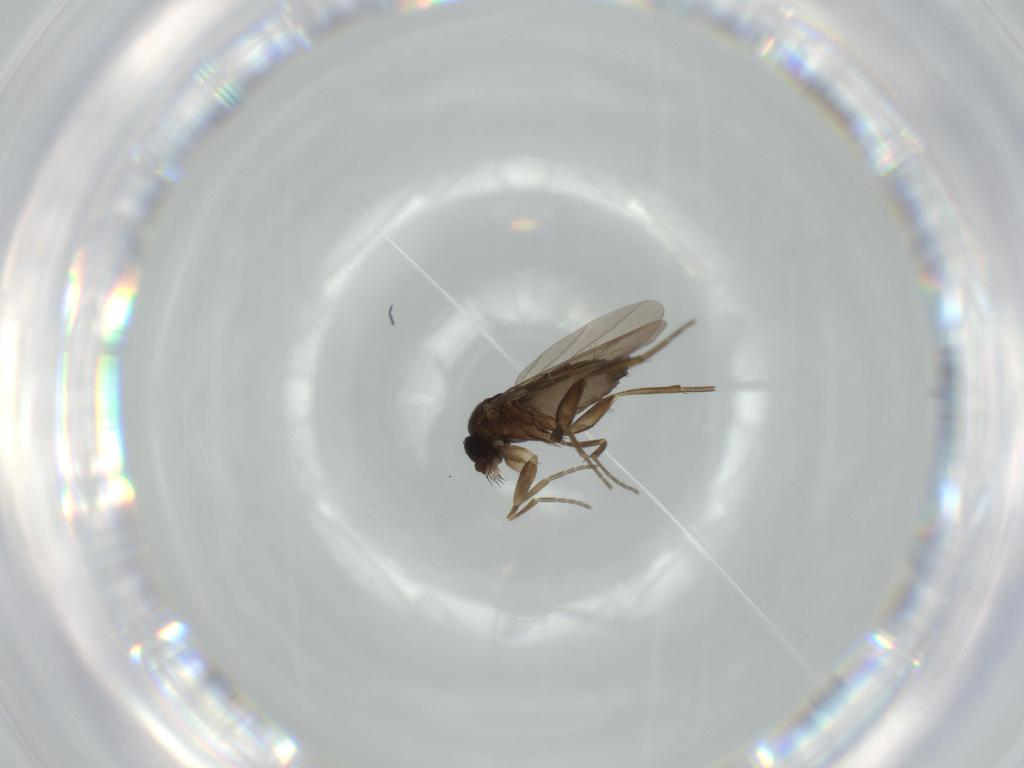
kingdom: Animalia
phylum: Arthropoda
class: Insecta
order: Diptera
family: Phoridae
